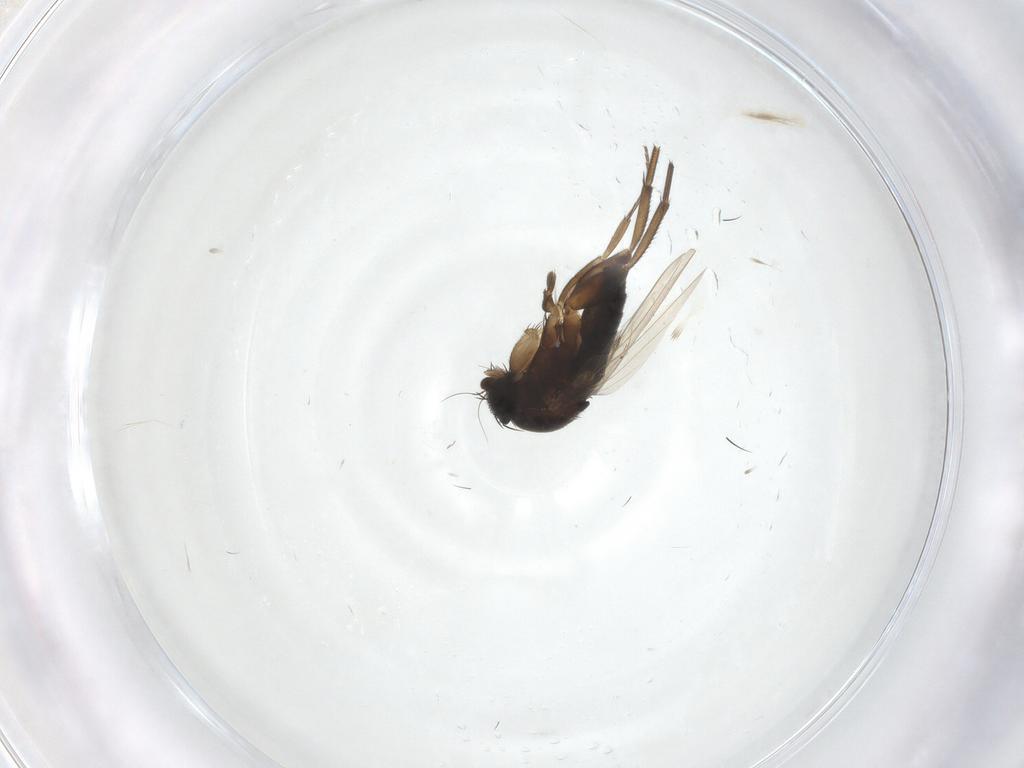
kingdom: Animalia
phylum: Arthropoda
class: Insecta
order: Diptera
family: Phoridae
